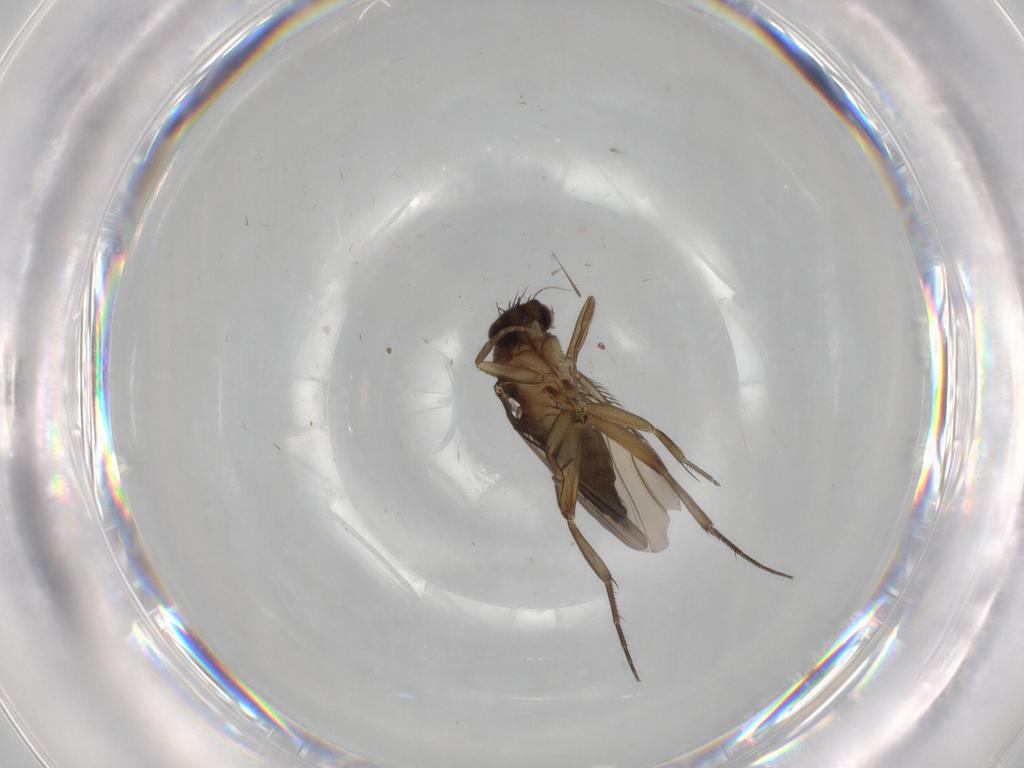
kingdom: Animalia
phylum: Arthropoda
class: Insecta
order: Diptera
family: Phoridae
